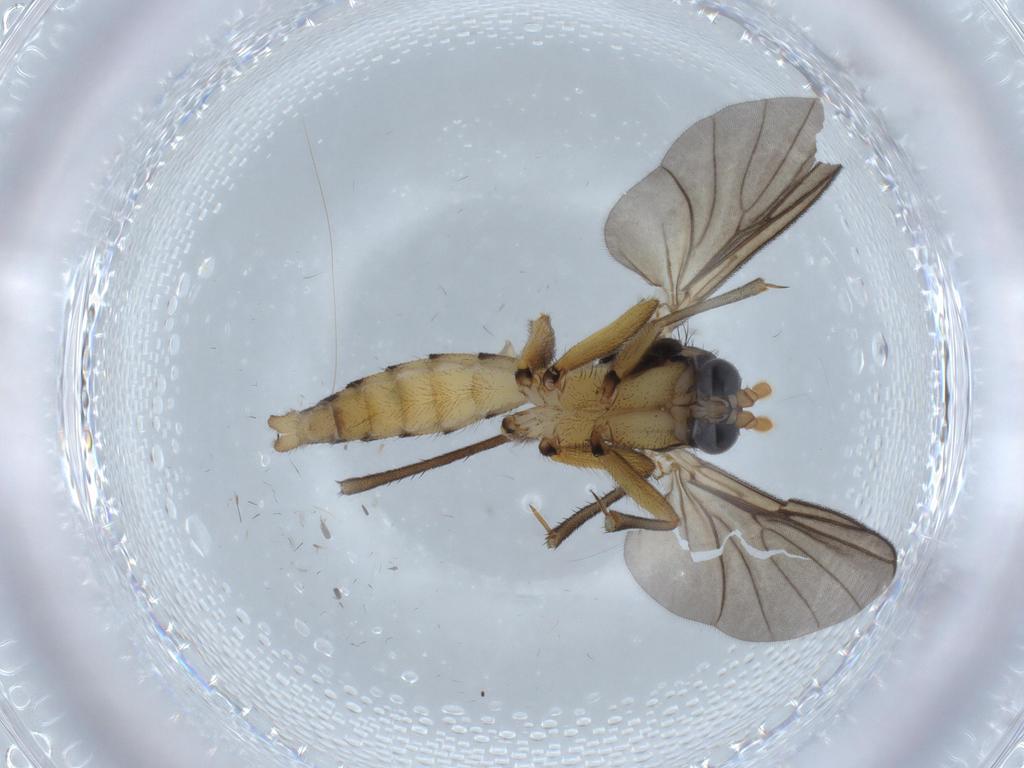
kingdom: Animalia
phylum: Arthropoda
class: Insecta
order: Diptera
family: Cecidomyiidae
